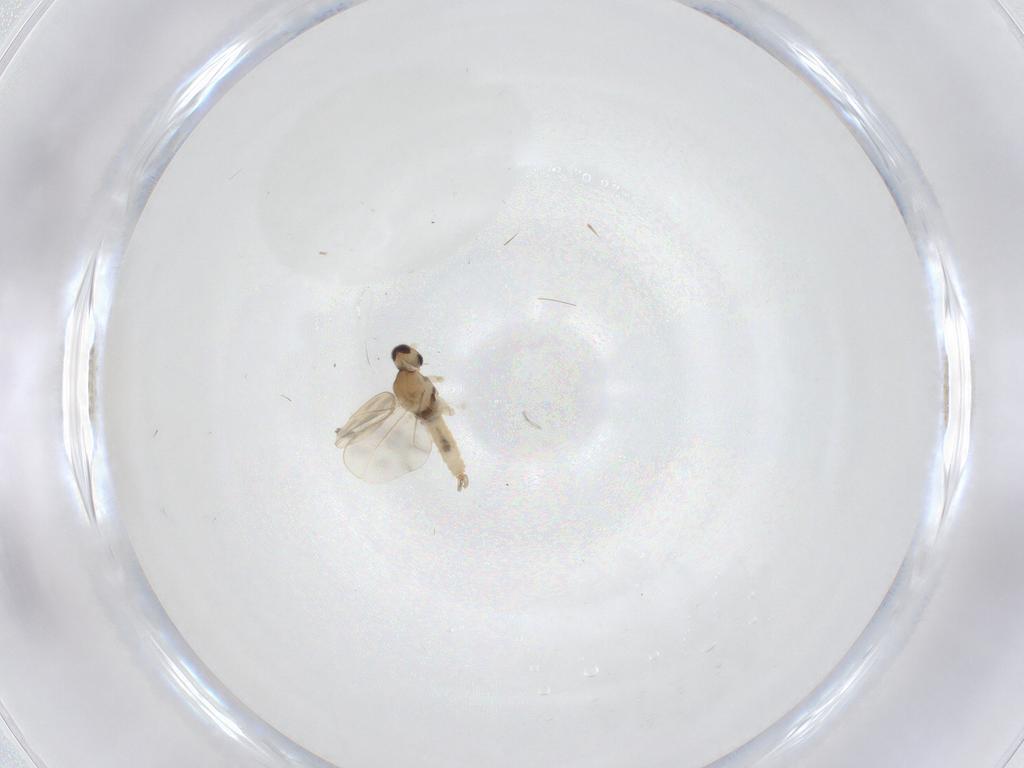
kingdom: Animalia
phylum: Arthropoda
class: Insecta
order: Diptera
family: Cecidomyiidae
